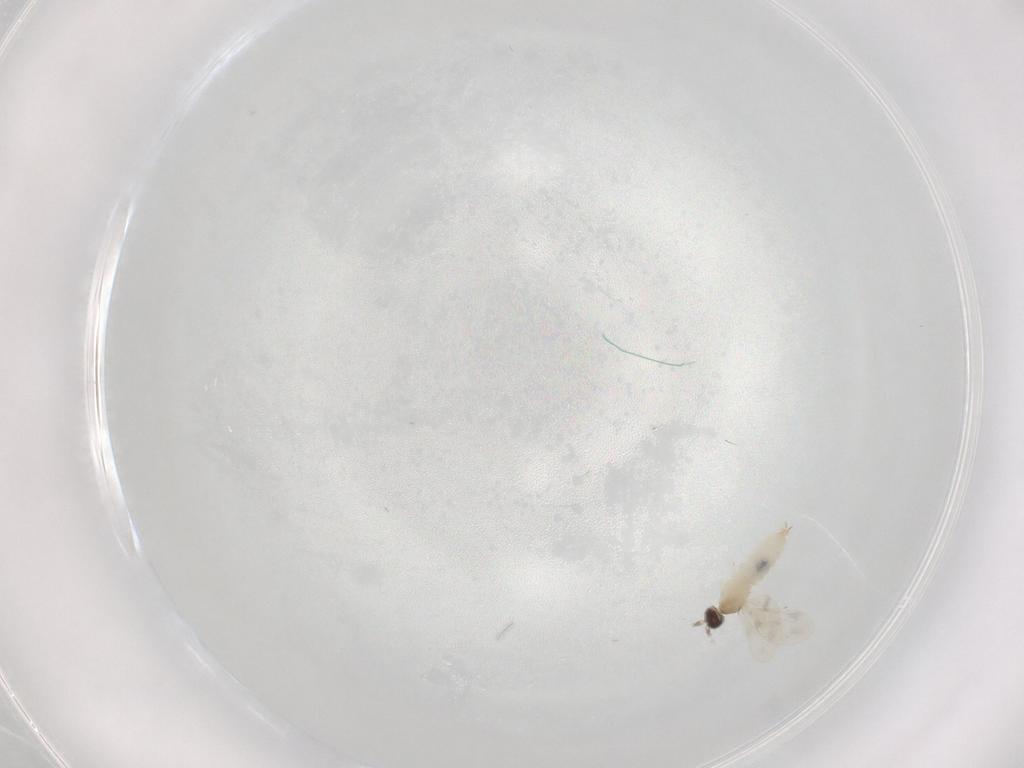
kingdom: Animalia
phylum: Arthropoda
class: Insecta
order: Diptera
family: Cecidomyiidae
